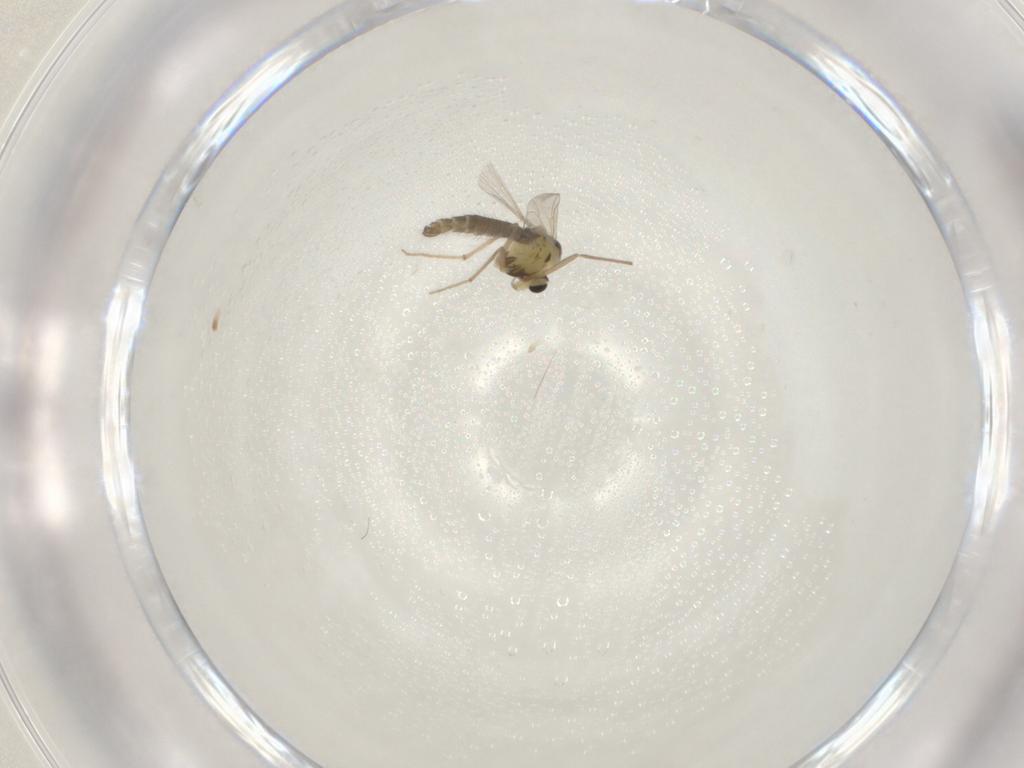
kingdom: Animalia
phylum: Arthropoda
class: Insecta
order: Diptera
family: Chironomidae
